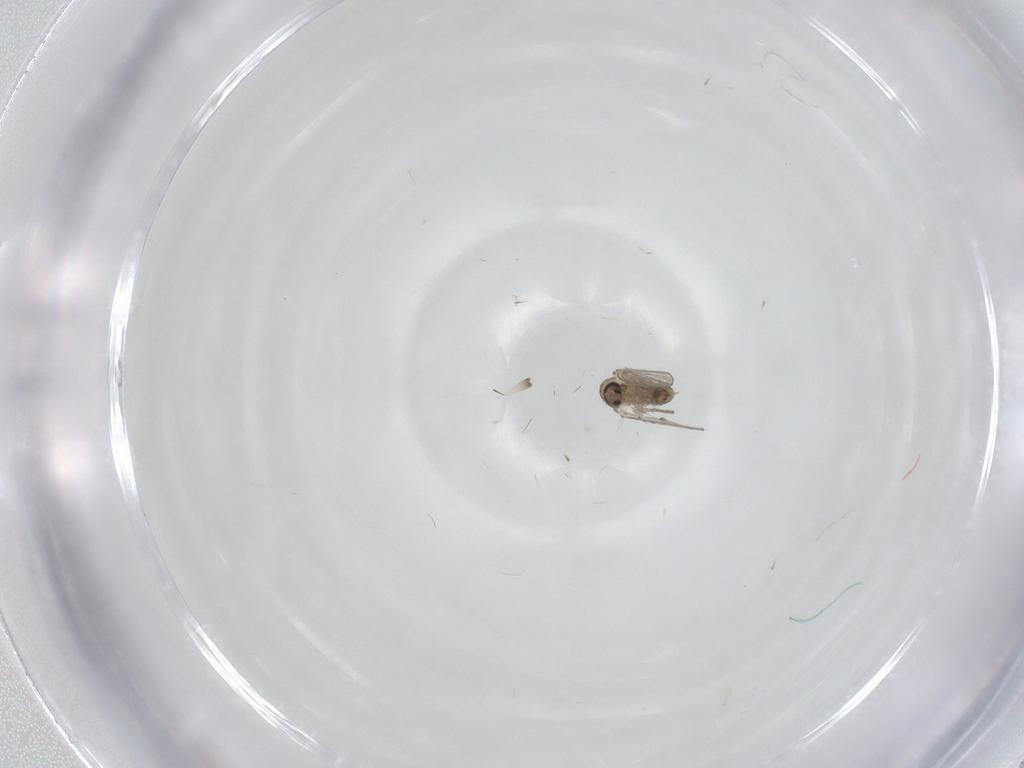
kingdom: Animalia
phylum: Arthropoda
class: Insecta
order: Diptera
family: Psychodidae
